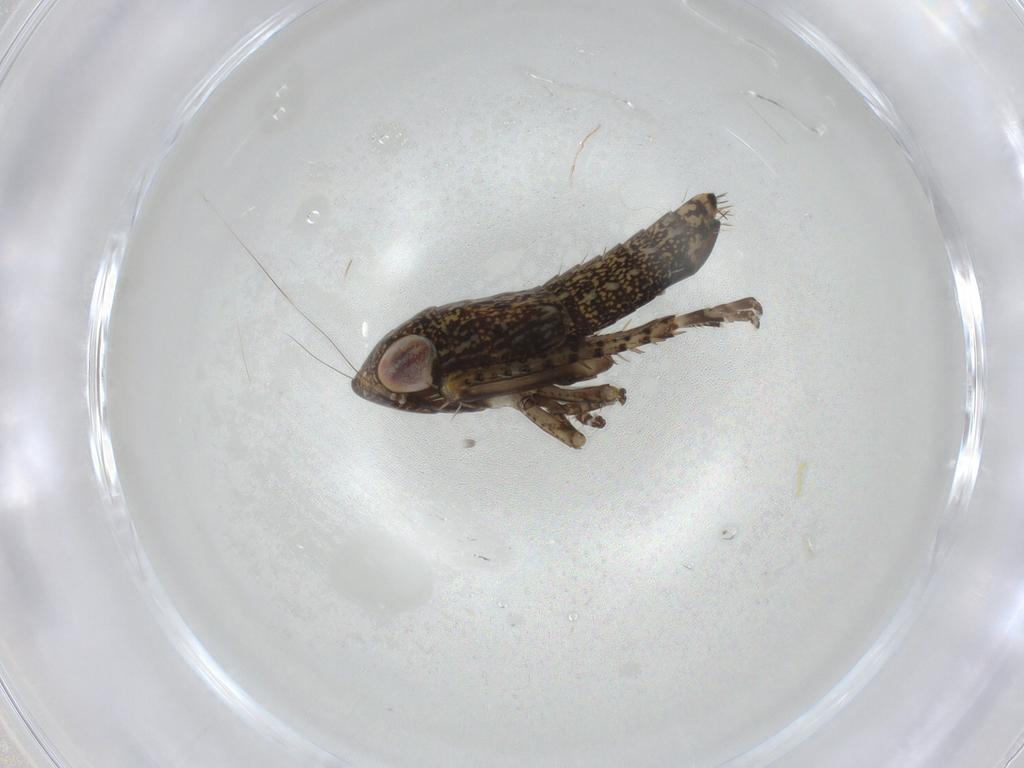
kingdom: Animalia
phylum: Arthropoda
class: Insecta
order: Hemiptera
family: Cicadellidae
